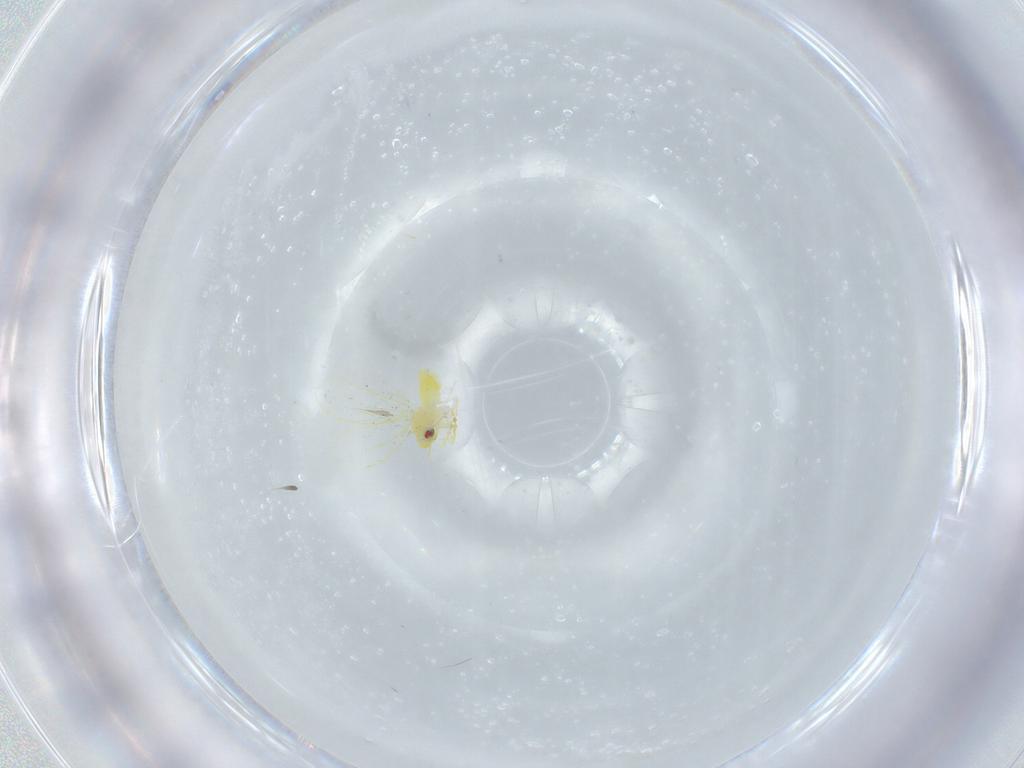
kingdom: Animalia
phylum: Arthropoda
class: Insecta
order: Hemiptera
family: Aleyrodidae
